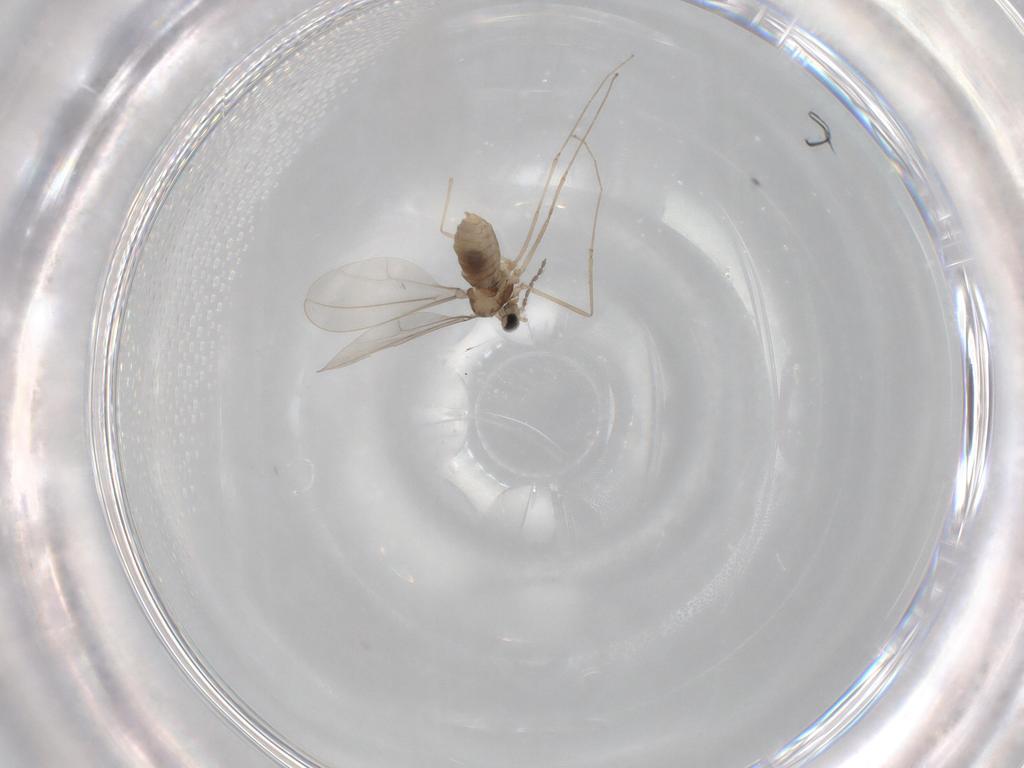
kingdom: Animalia
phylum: Arthropoda
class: Insecta
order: Diptera
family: Cecidomyiidae
